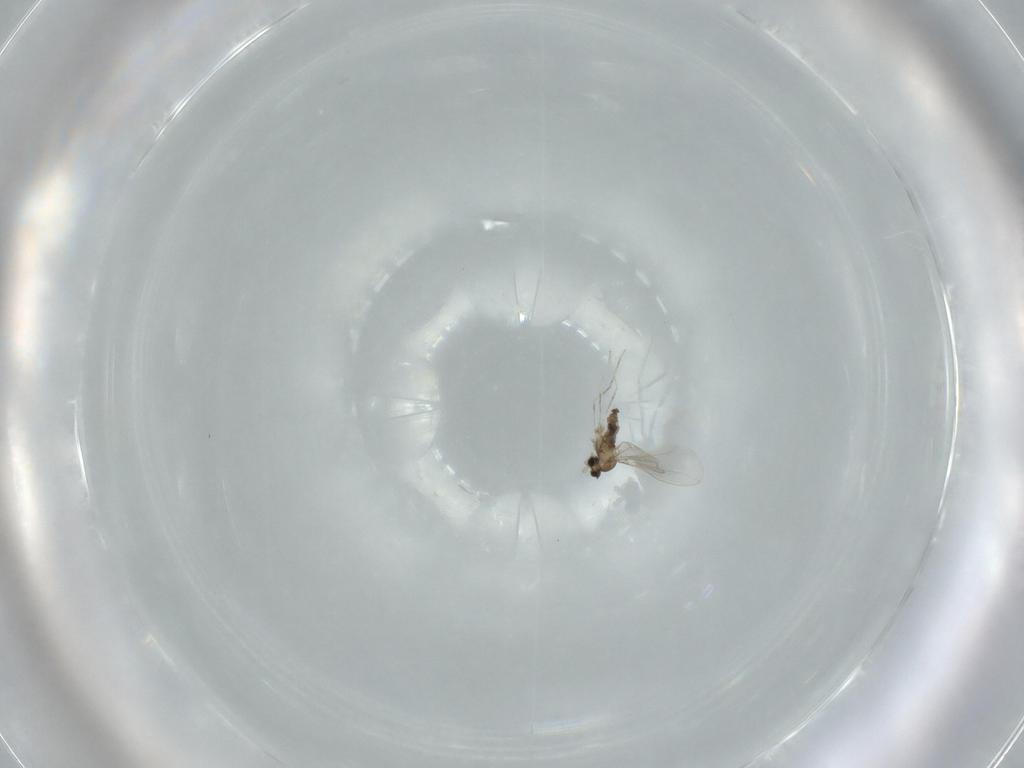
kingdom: Animalia
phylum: Arthropoda
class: Insecta
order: Diptera
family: Cecidomyiidae
